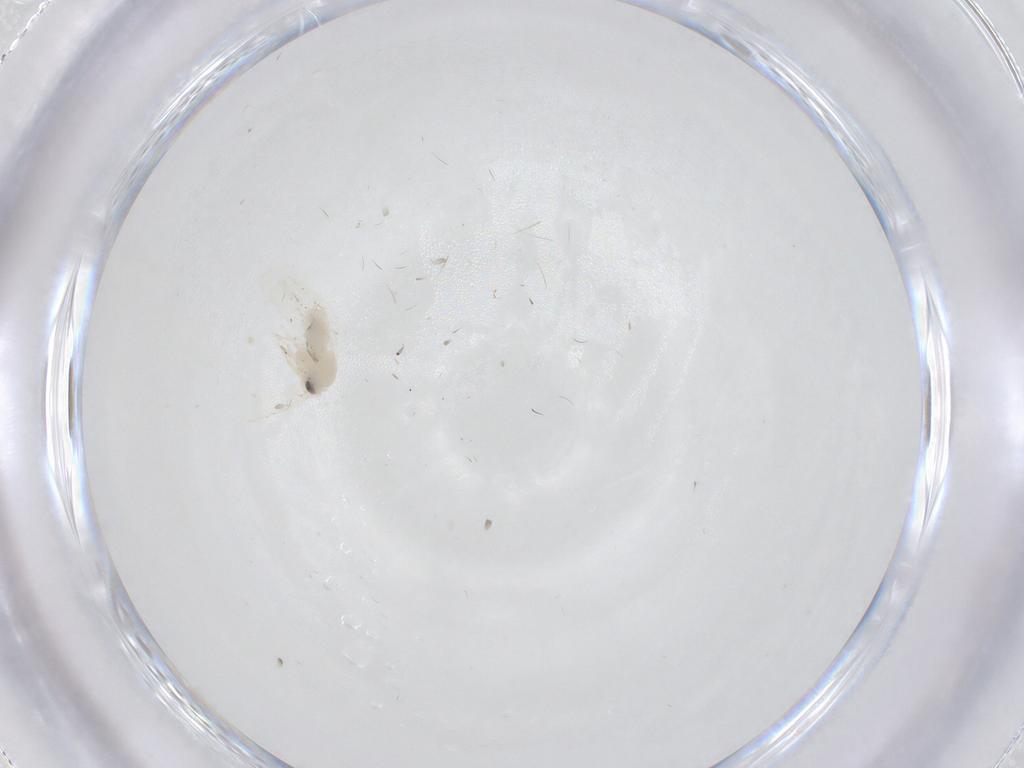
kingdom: Animalia
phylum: Arthropoda
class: Insecta
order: Hemiptera
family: Aleyrodidae
